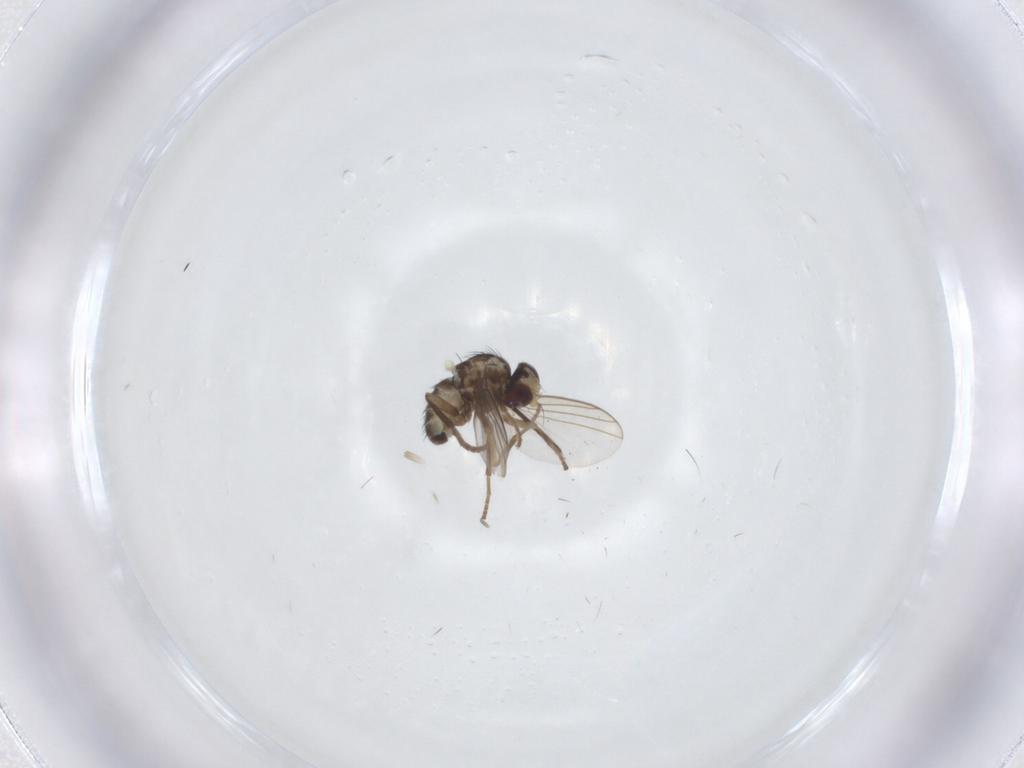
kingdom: Animalia
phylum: Arthropoda
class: Insecta
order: Diptera
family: Agromyzidae
